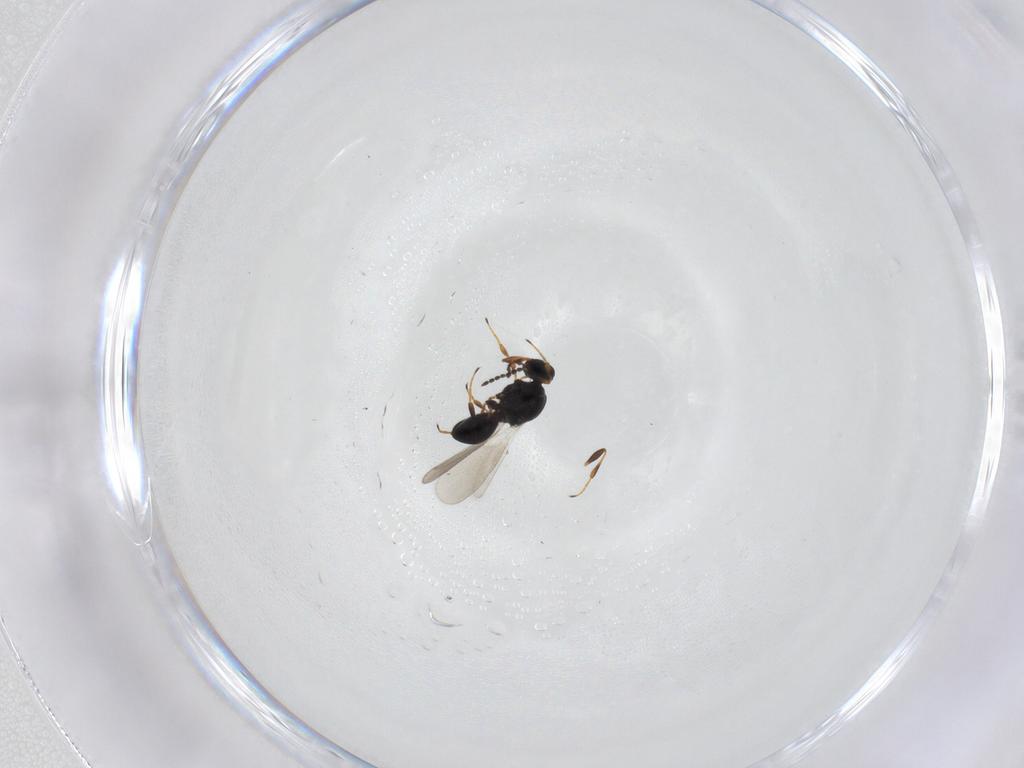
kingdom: Animalia
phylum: Arthropoda
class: Insecta
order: Hymenoptera
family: Platygastridae
